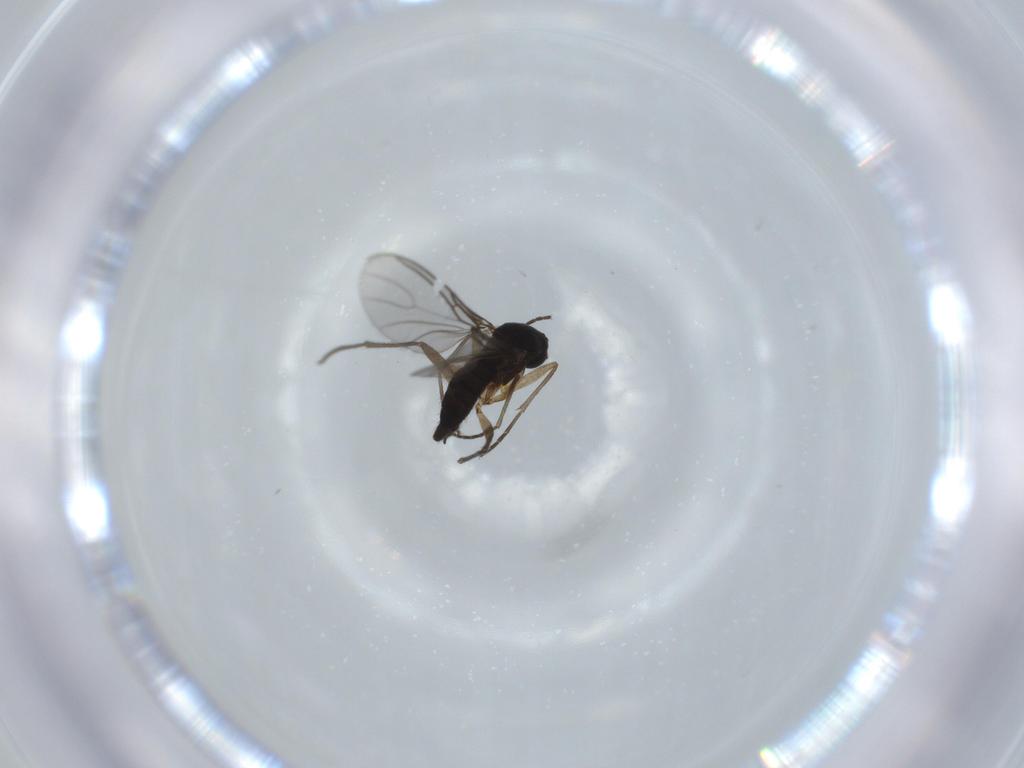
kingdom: Animalia
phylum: Arthropoda
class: Insecta
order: Diptera
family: Sciaridae
